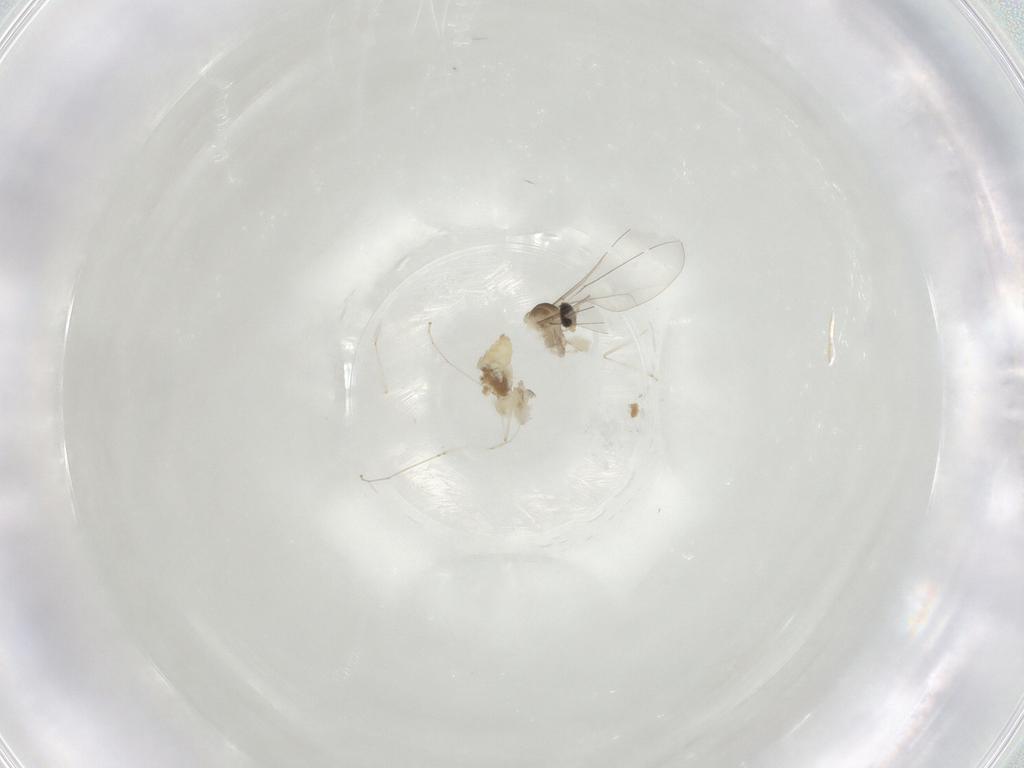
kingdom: Animalia
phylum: Arthropoda
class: Insecta
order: Diptera
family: Cecidomyiidae
